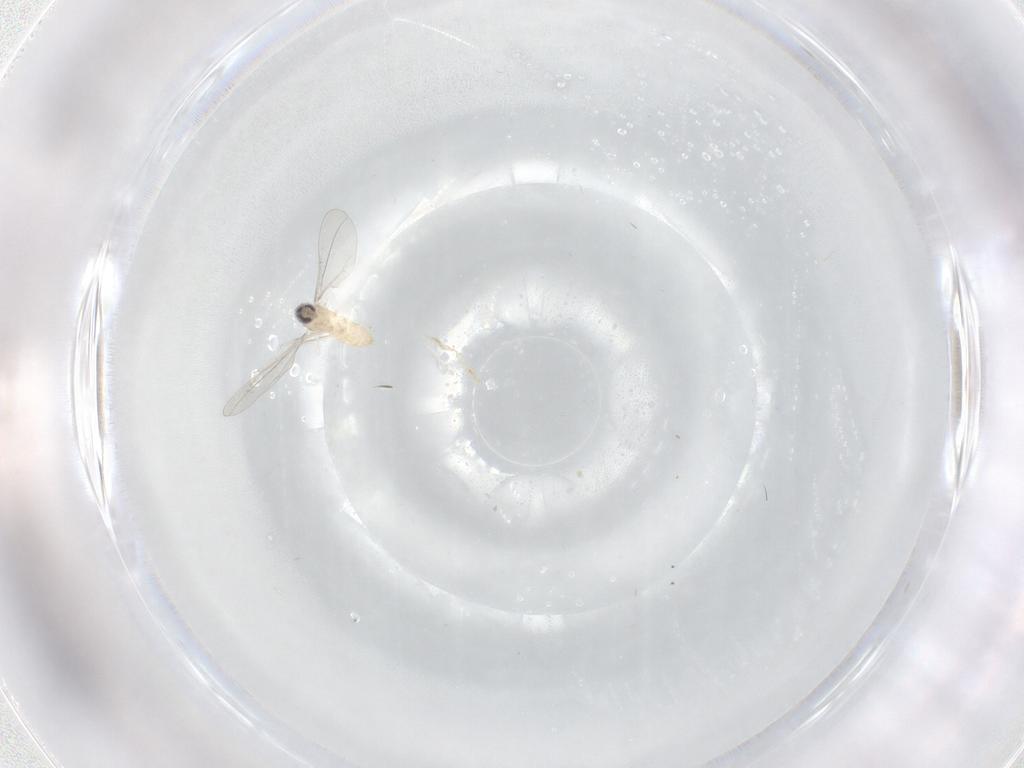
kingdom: Animalia
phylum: Arthropoda
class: Insecta
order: Diptera
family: Cecidomyiidae
